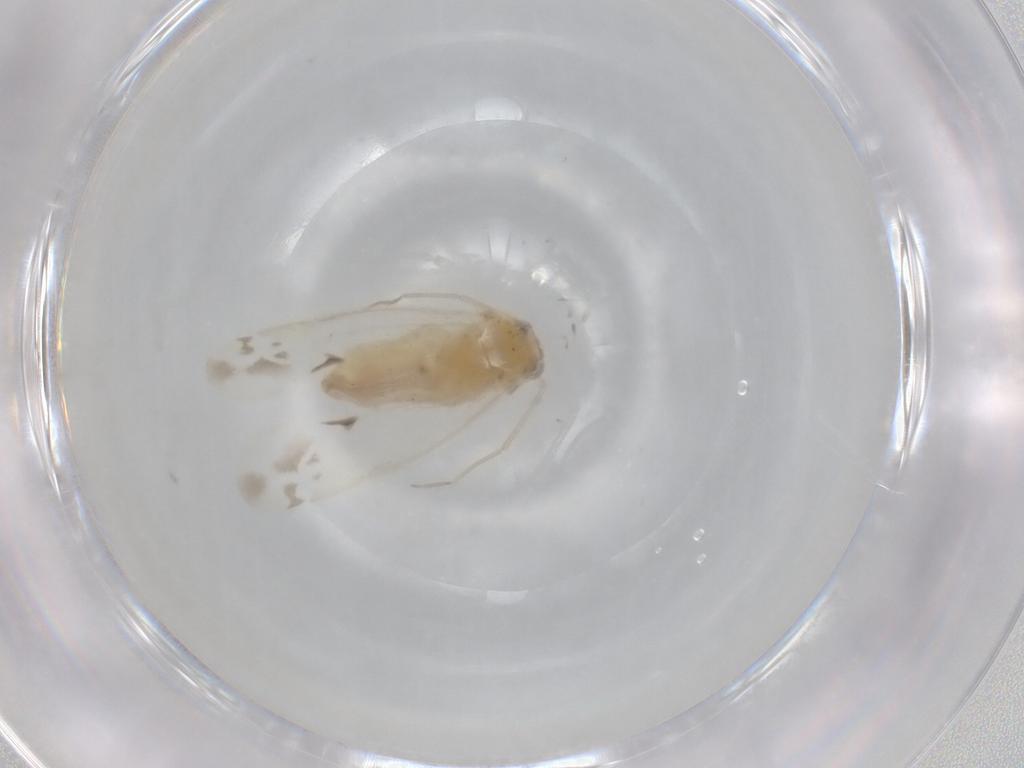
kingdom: Animalia
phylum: Arthropoda
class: Insecta
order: Hemiptera
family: Miridae
